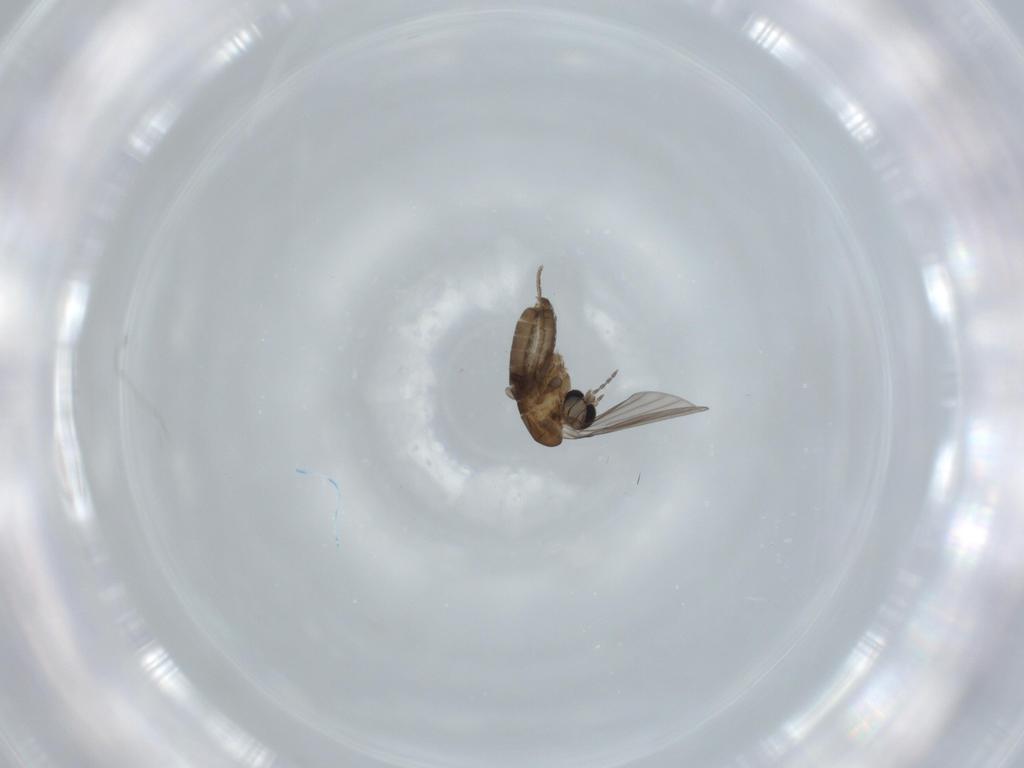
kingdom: Animalia
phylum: Arthropoda
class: Insecta
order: Diptera
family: Psychodidae
